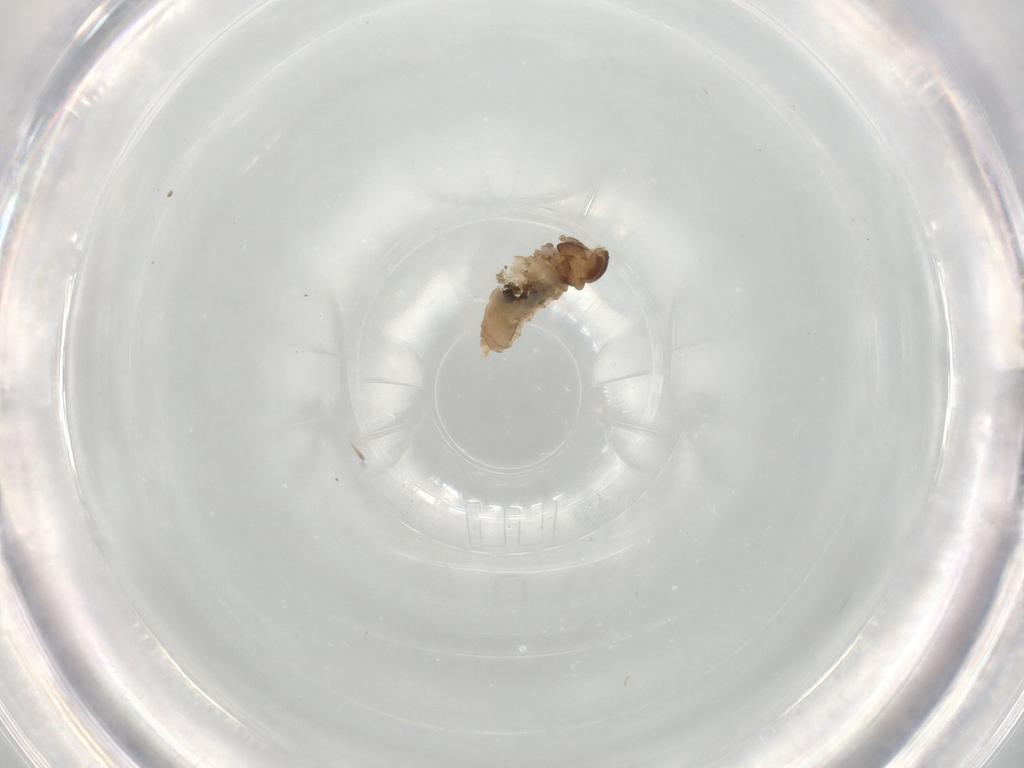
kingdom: Animalia
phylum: Arthropoda
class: Insecta
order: Diptera
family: Cecidomyiidae
